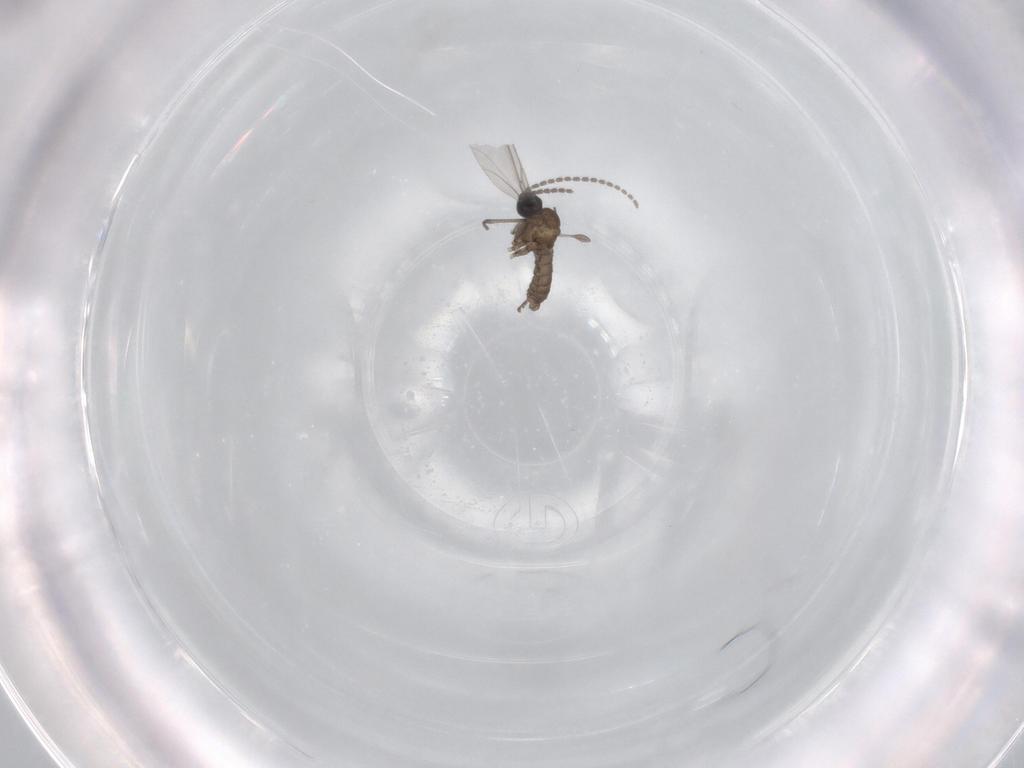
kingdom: Animalia
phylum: Arthropoda
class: Insecta
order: Diptera
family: Sciaridae
